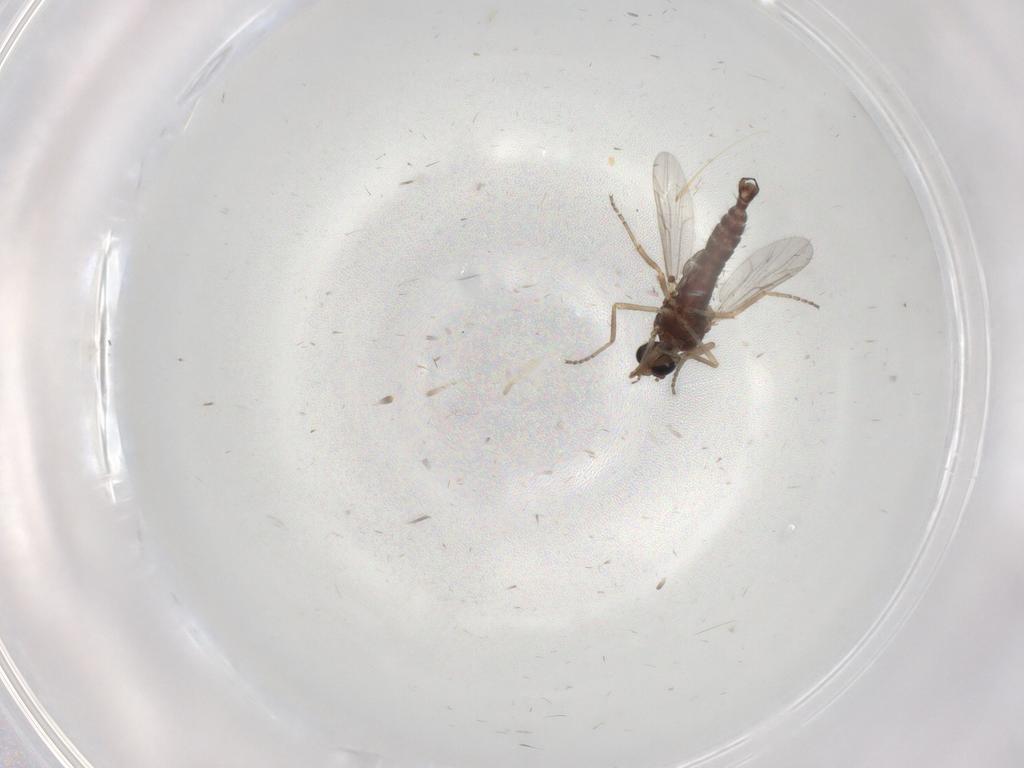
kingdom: Animalia
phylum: Arthropoda
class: Insecta
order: Diptera
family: Ceratopogonidae
